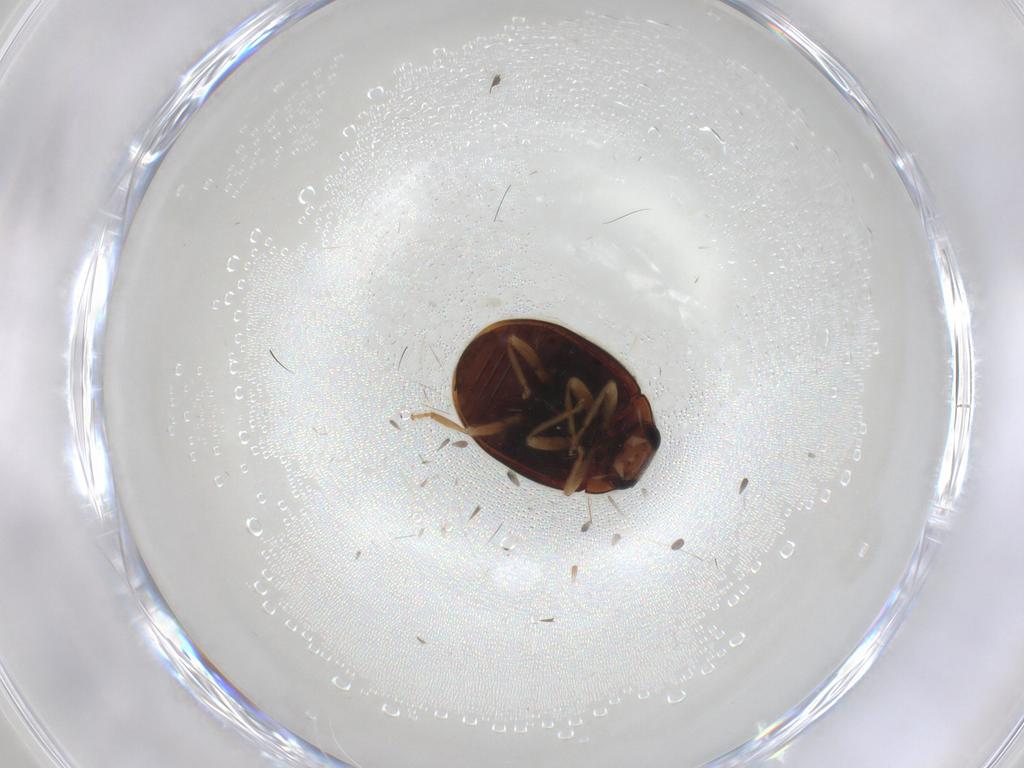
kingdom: Animalia
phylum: Arthropoda
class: Insecta
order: Coleoptera
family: Coccinellidae
